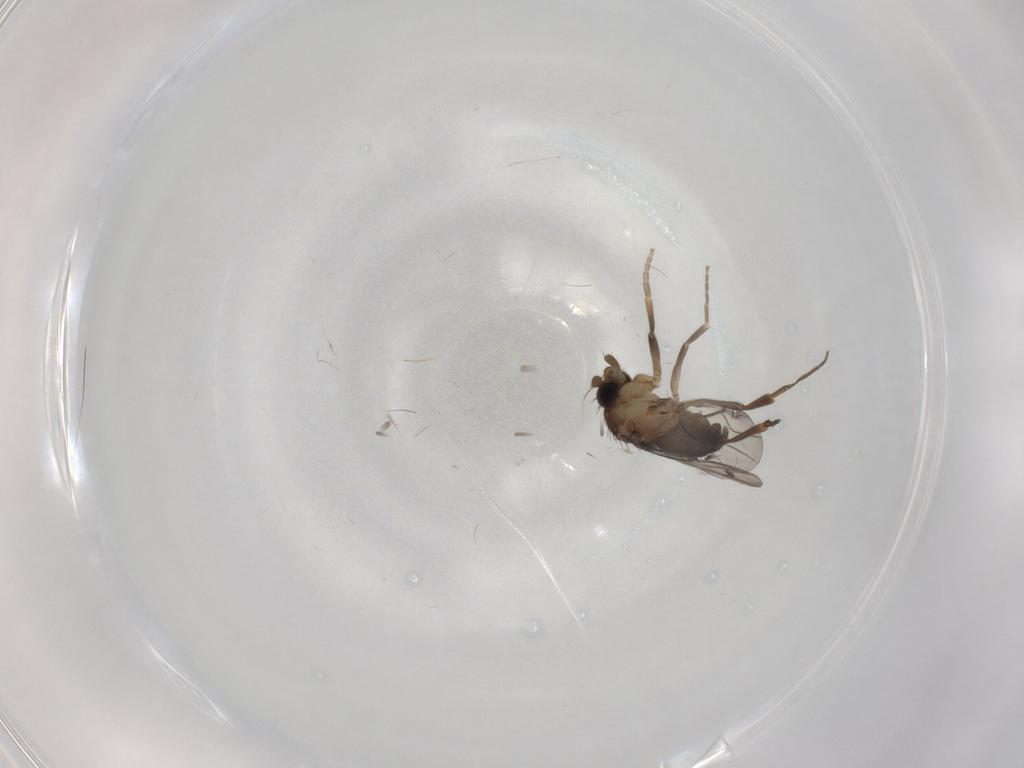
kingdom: Animalia
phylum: Arthropoda
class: Insecta
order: Diptera
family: Phoridae
